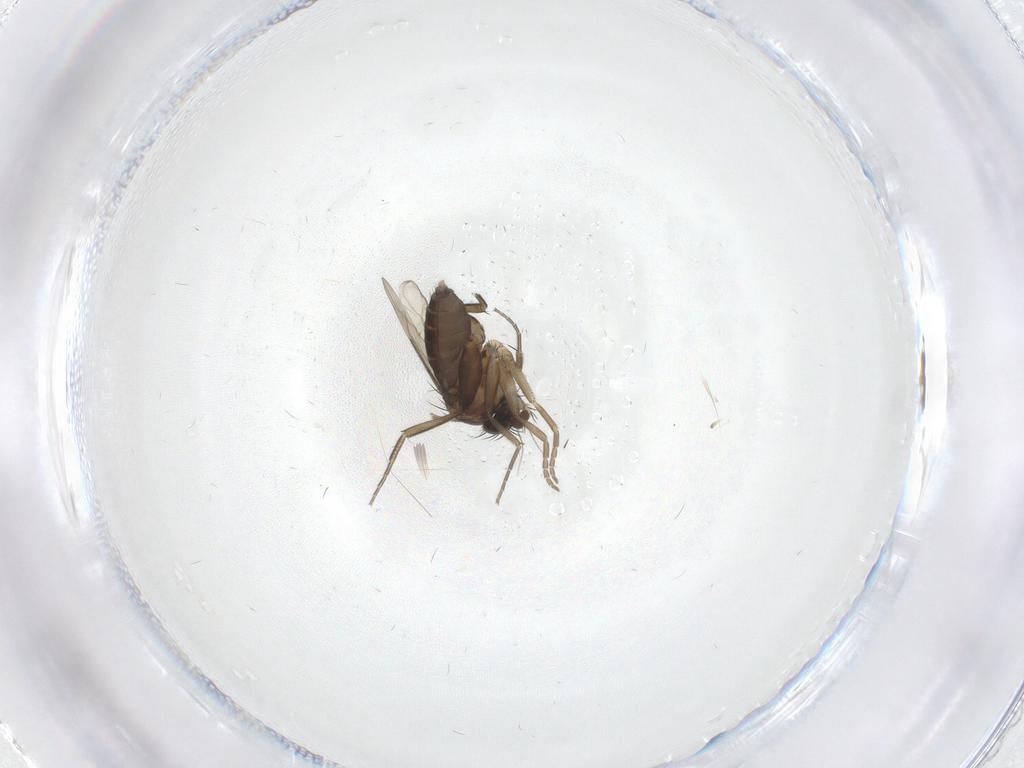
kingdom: Animalia
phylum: Arthropoda
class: Insecta
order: Diptera
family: Phoridae
